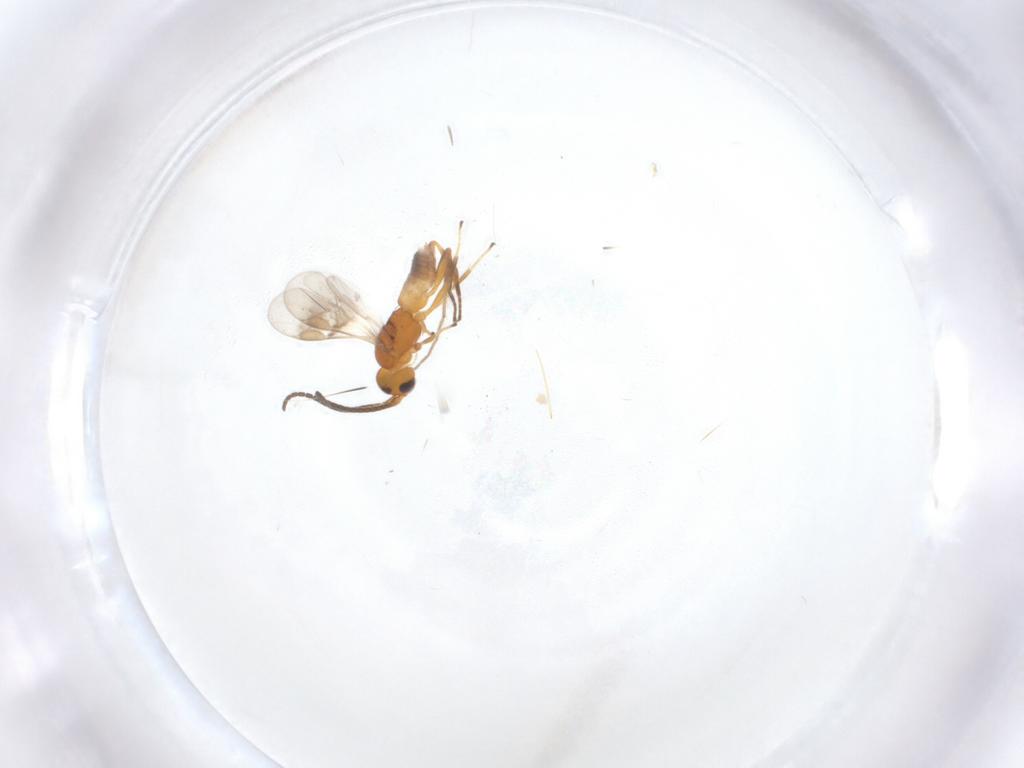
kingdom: Animalia
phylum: Arthropoda
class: Insecta
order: Hymenoptera
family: Braconidae
